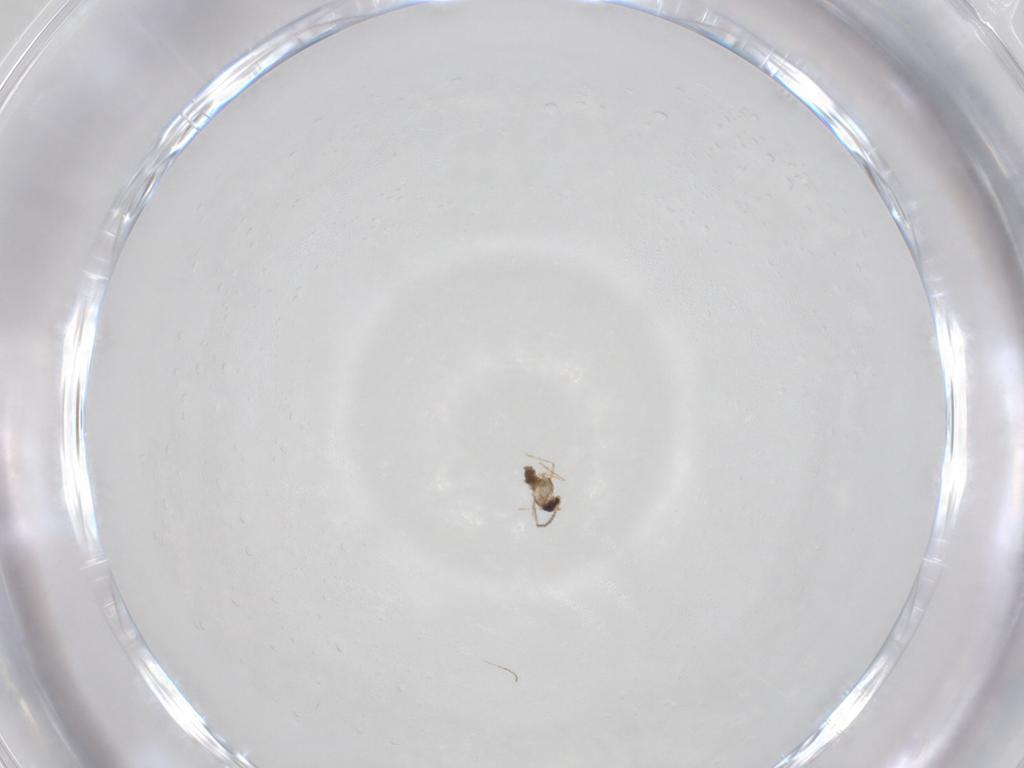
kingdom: Animalia
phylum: Arthropoda
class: Insecta
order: Diptera
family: Cecidomyiidae
